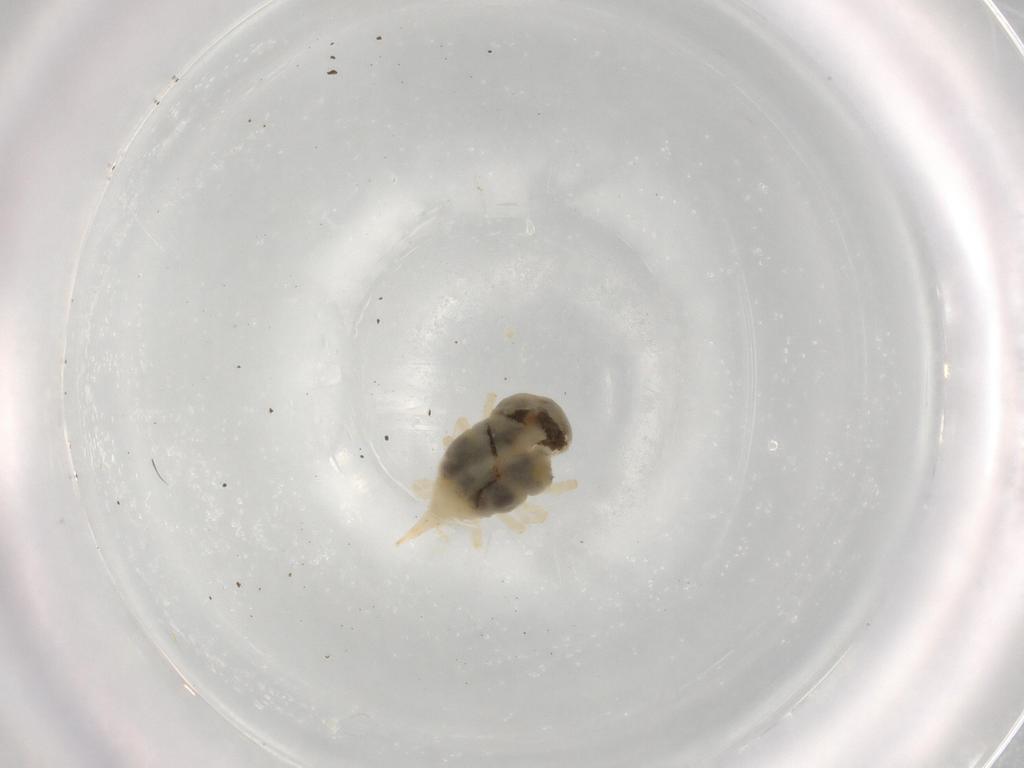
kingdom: Animalia
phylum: Arthropoda
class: Arachnida
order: Trombidiformes
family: Bdellidae
